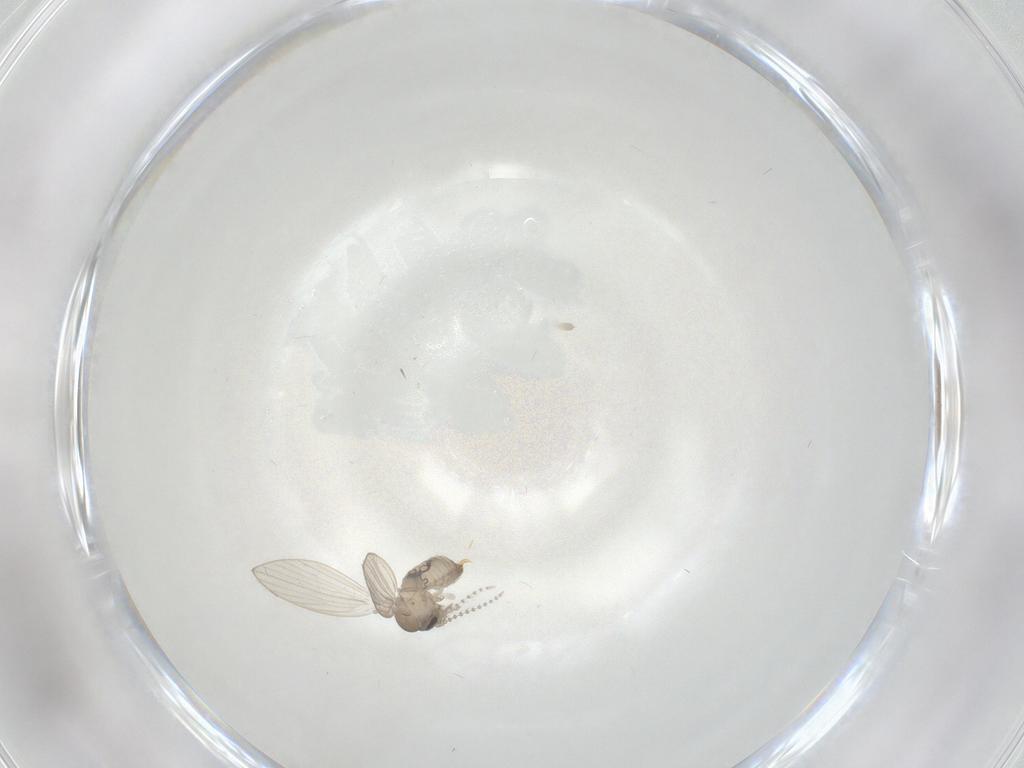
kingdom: Animalia
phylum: Arthropoda
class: Insecta
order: Diptera
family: Psychodidae
